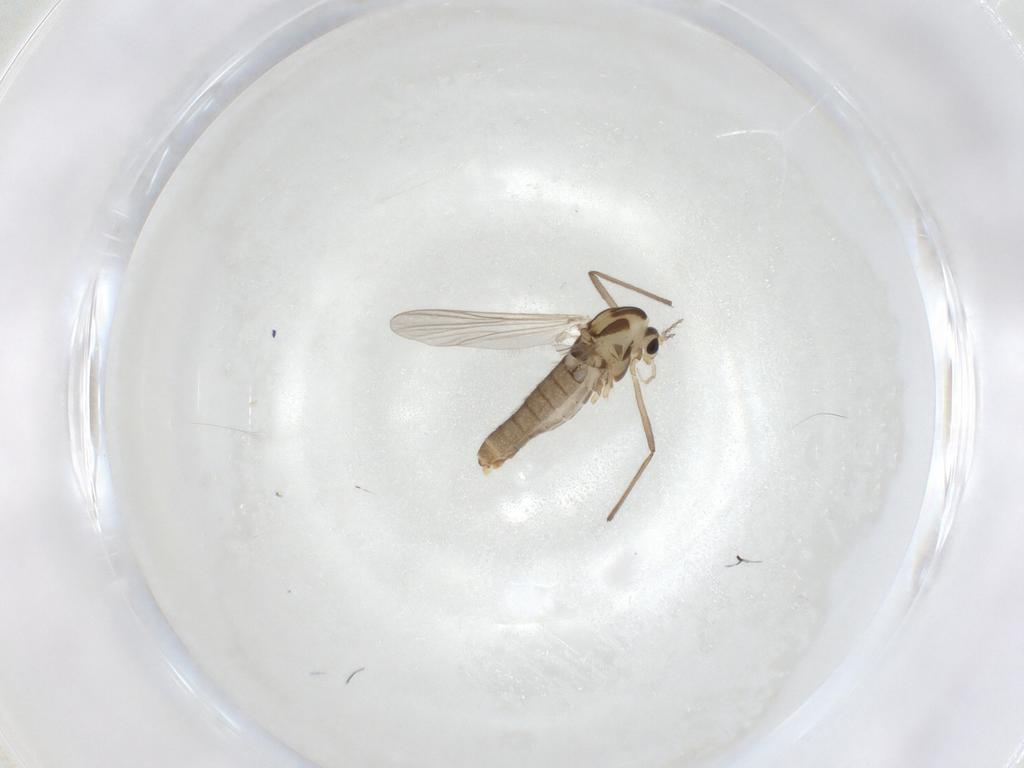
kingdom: Animalia
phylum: Arthropoda
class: Insecta
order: Diptera
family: Chironomidae
